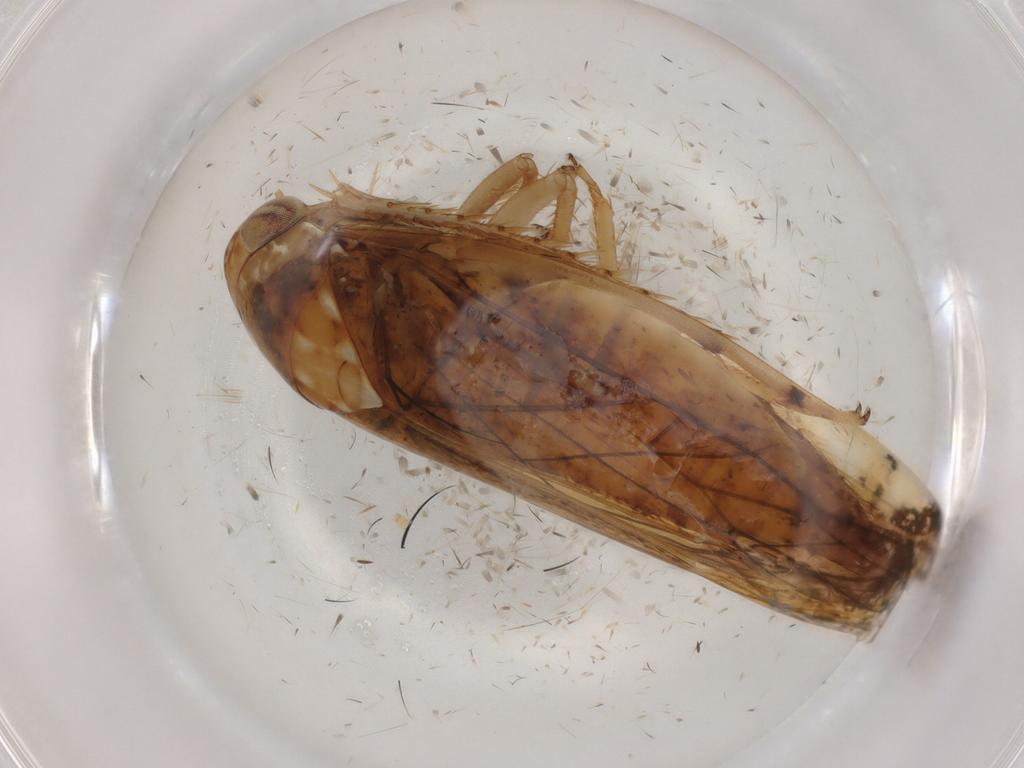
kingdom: Animalia
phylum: Arthropoda
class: Insecta
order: Hemiptera
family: Cicadellidae
